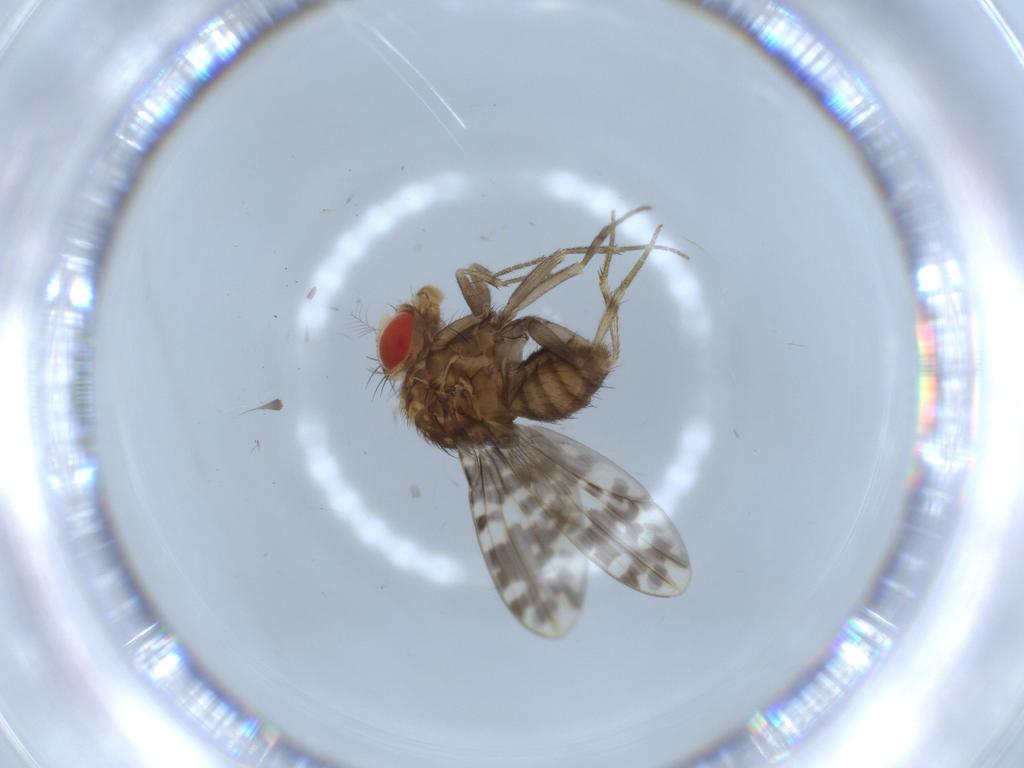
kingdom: Animalia
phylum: Arthropoda
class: Insecta
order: Diptera
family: Drosophilidae
